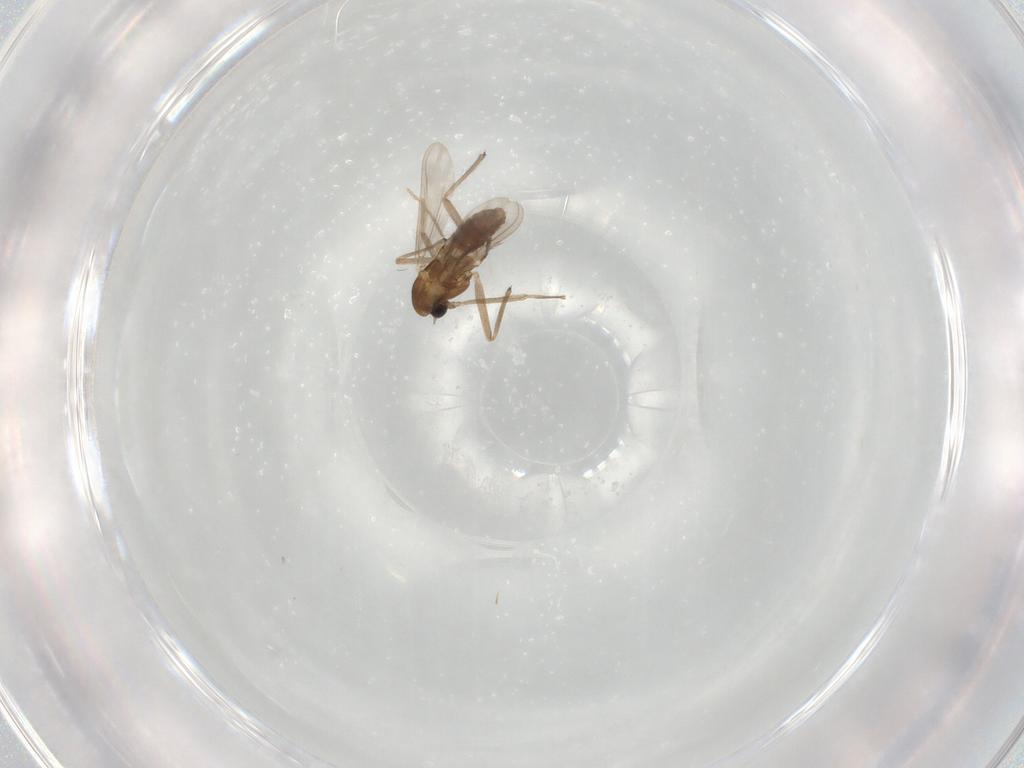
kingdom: Animalia
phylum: Arthropoda
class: Insecta
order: Diptera
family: Chironomidae
